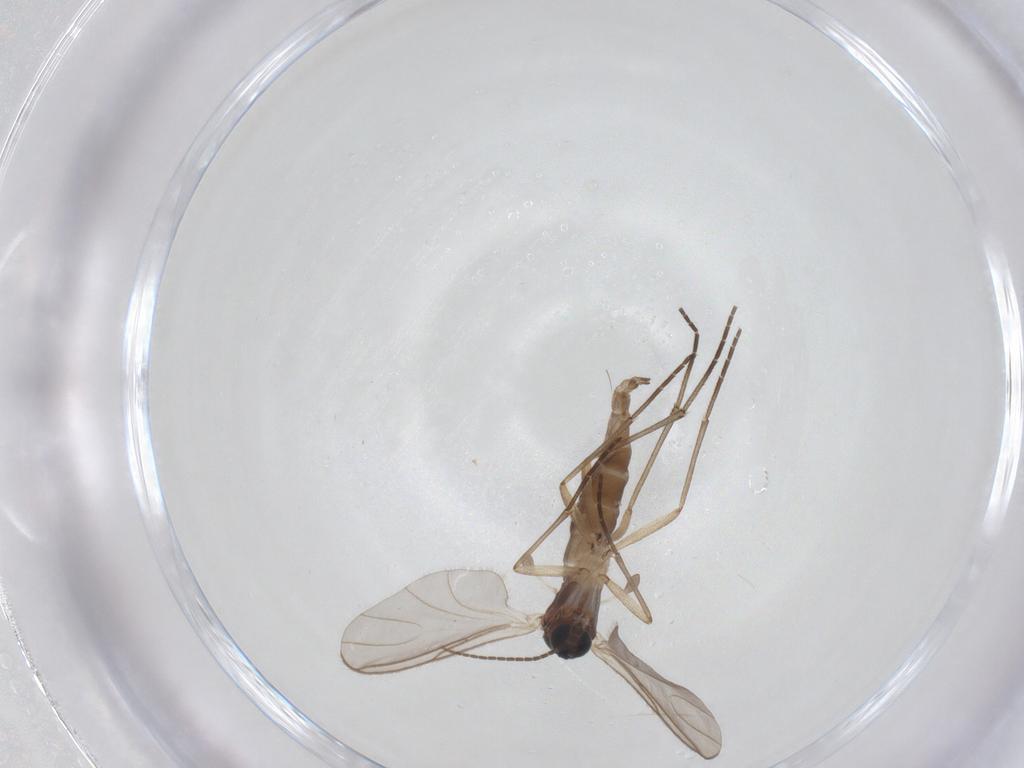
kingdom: Animalia
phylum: Arthropoda
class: Insecta
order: Diptera
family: Sciaridae
